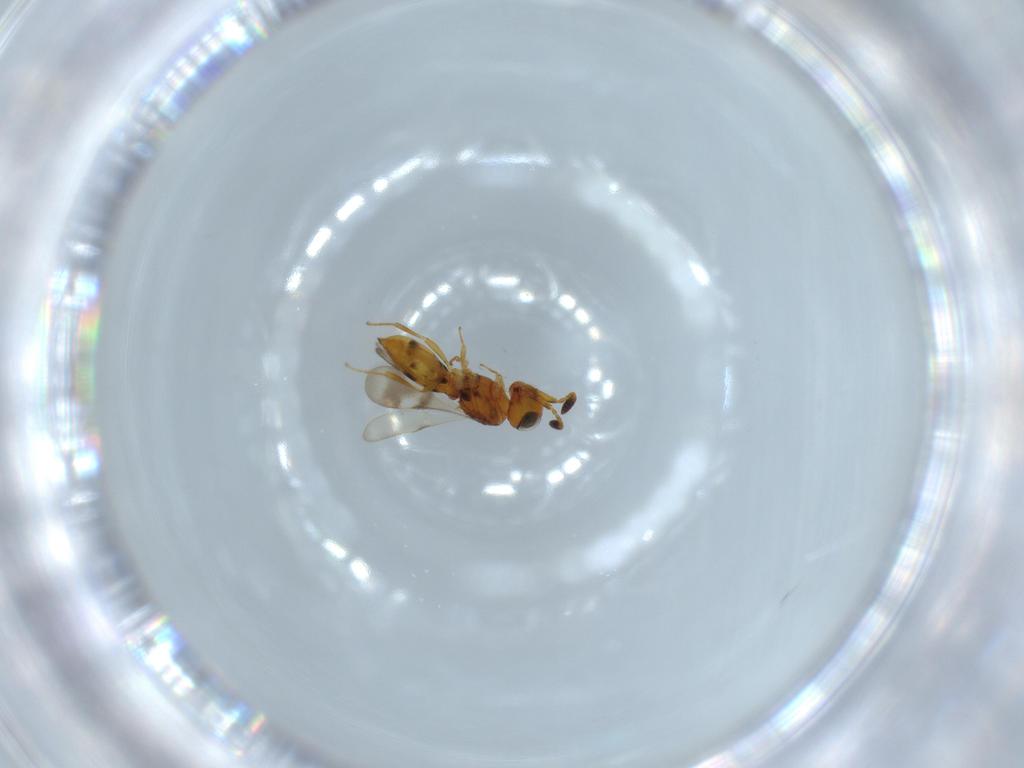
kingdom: Animalia
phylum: Arthropoda
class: Insecta
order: Hymenoptera
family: Scelionidae
